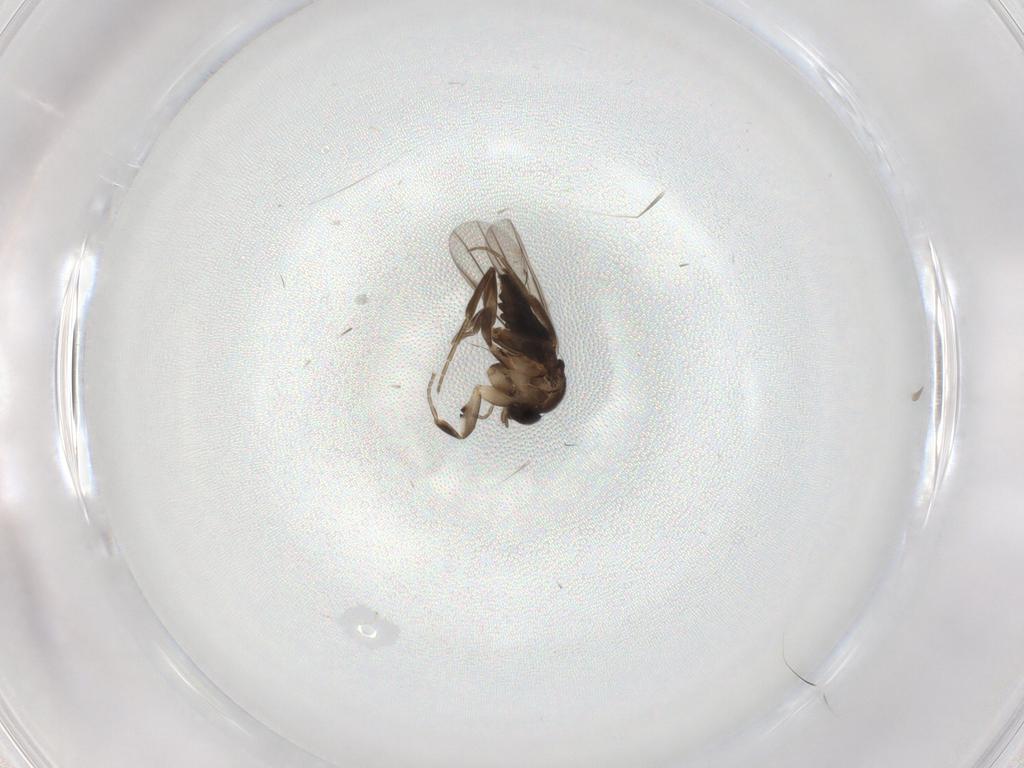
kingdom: Animalia
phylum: Arthropoda
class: Insecta
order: Diptera
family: Phoridae
